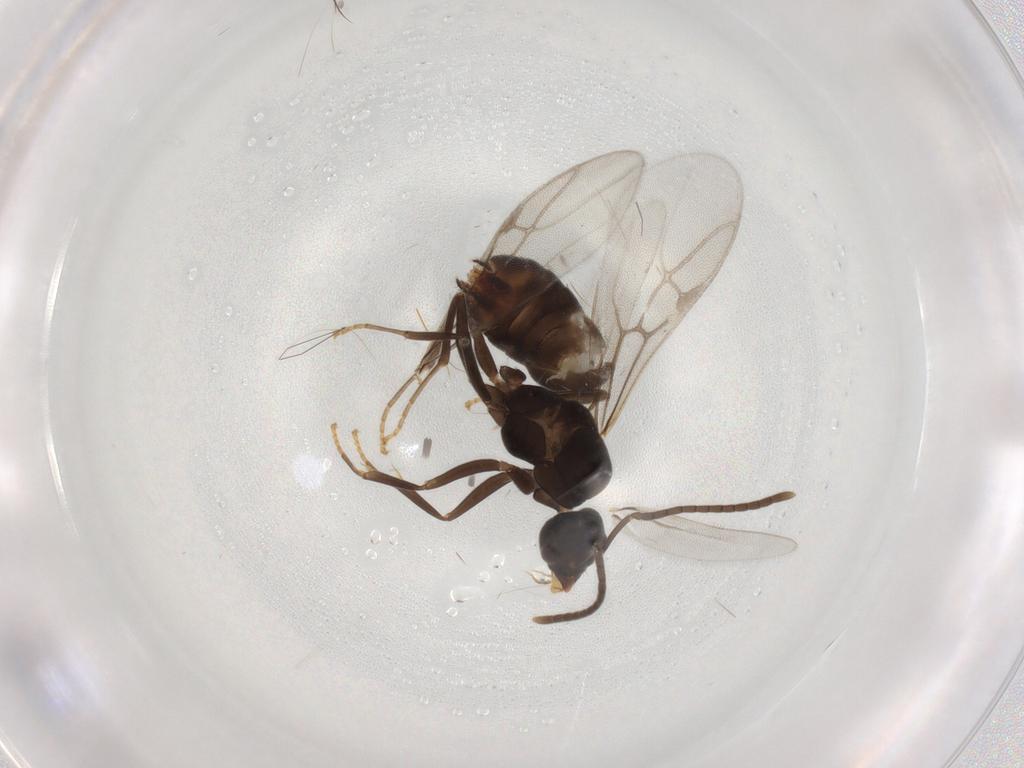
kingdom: Animalia
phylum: Arthropoda
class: Insecta
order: Hymenoptera
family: Formicidae
